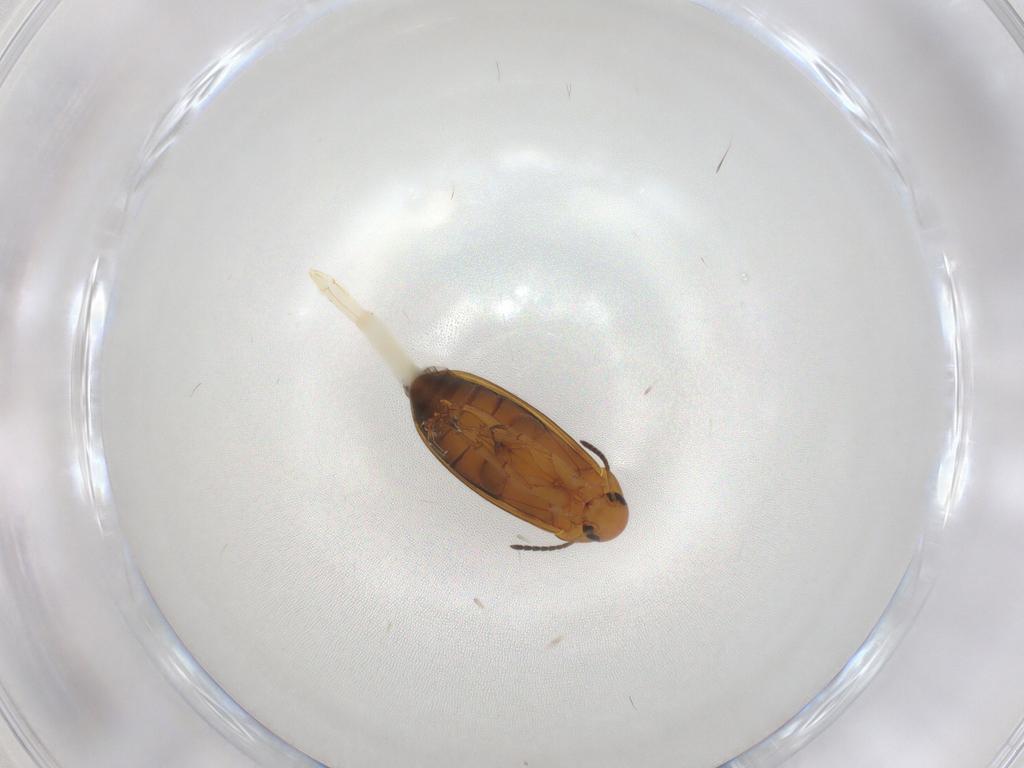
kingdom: Animalia
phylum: Arthropoda
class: Insecta
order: Coleoptera
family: Scraptiidae
